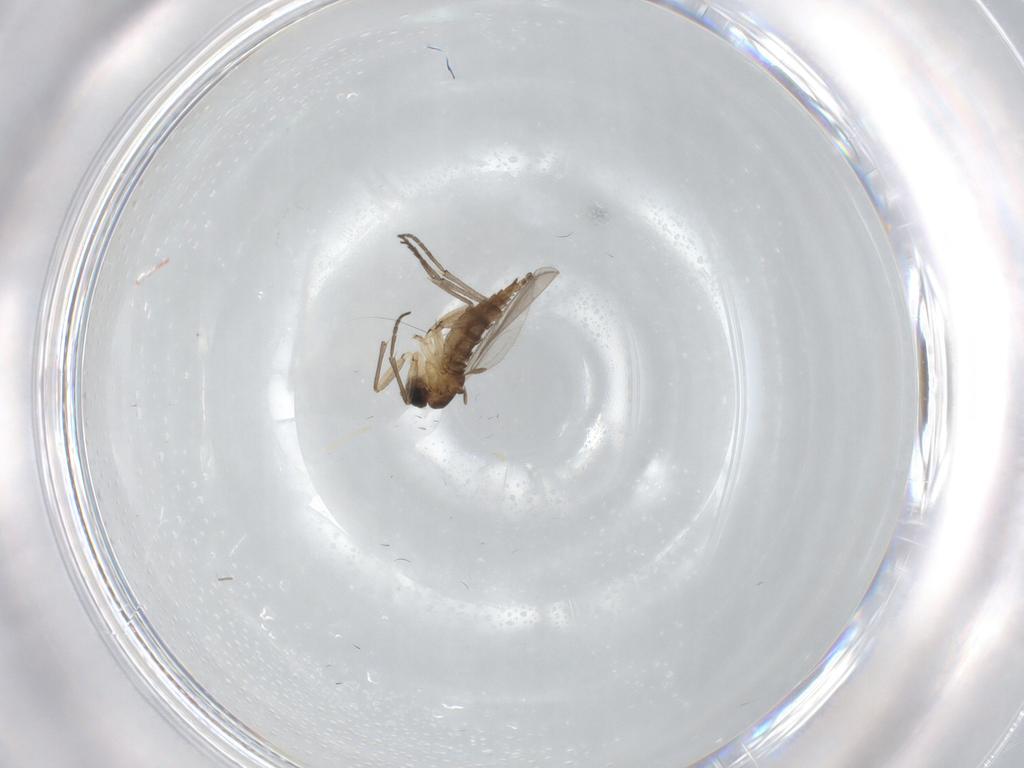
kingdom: Animalia
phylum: Arthropoda
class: Insecta
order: Diptera
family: Sciaridae
